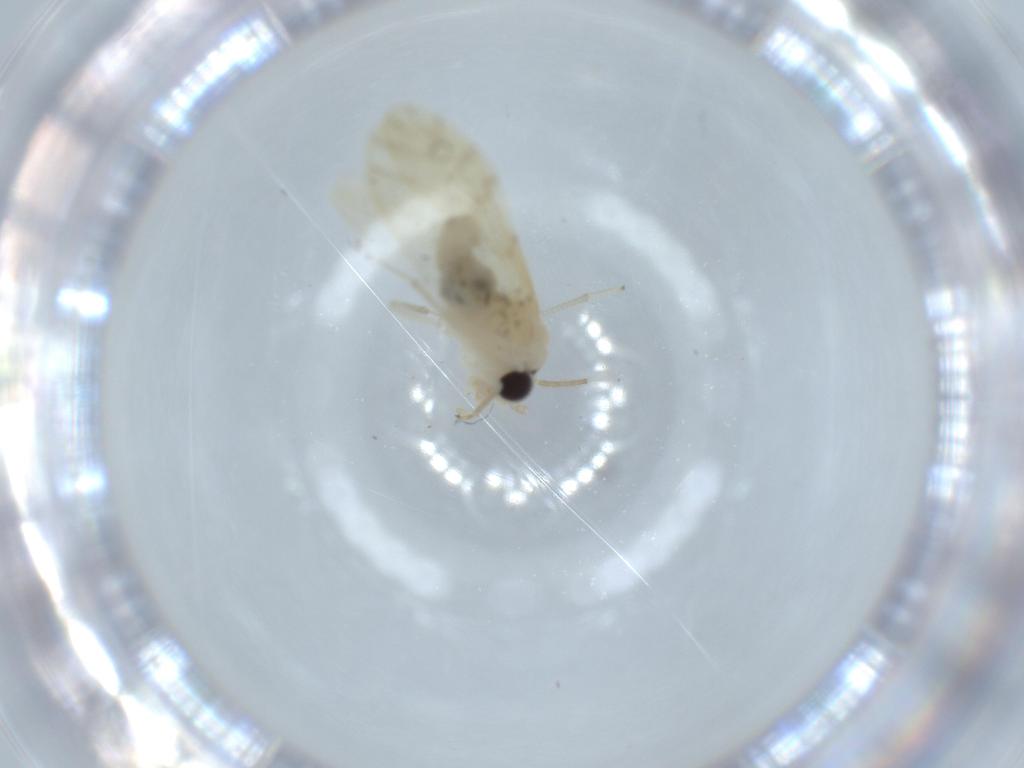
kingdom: Animalia
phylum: Arthropoda
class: Insecta
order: Psocodea
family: Caeciliusidae
